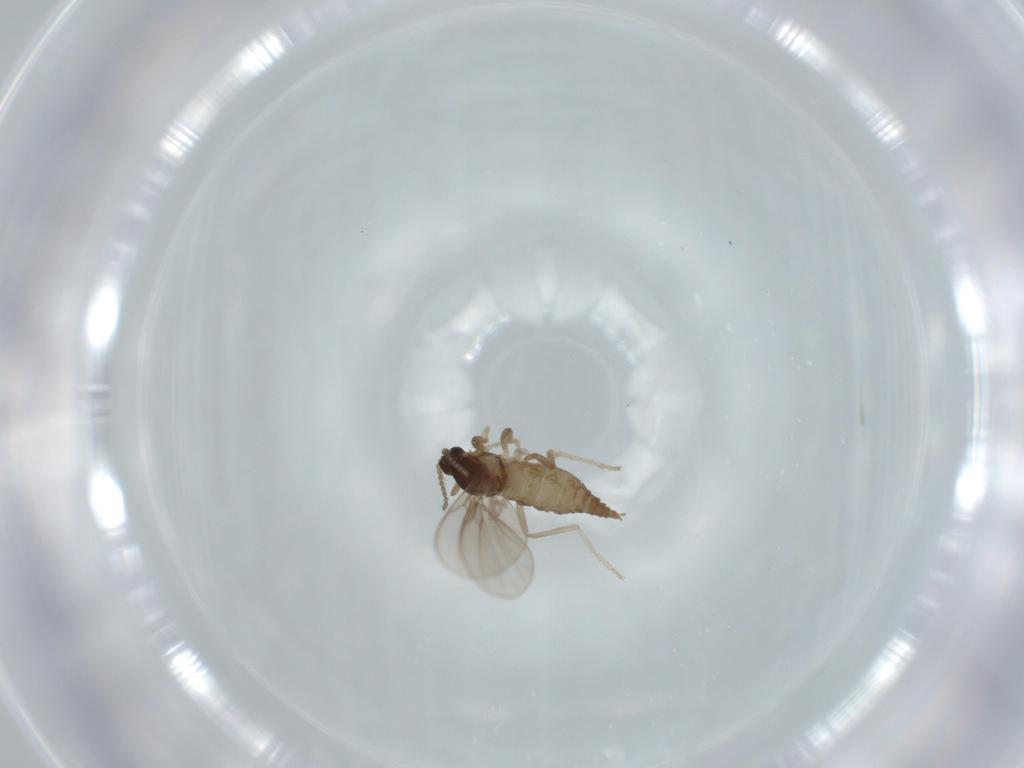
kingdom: Animalia
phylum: Arthropoda
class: Insecta
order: Diptera
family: Cecidomyiidae
